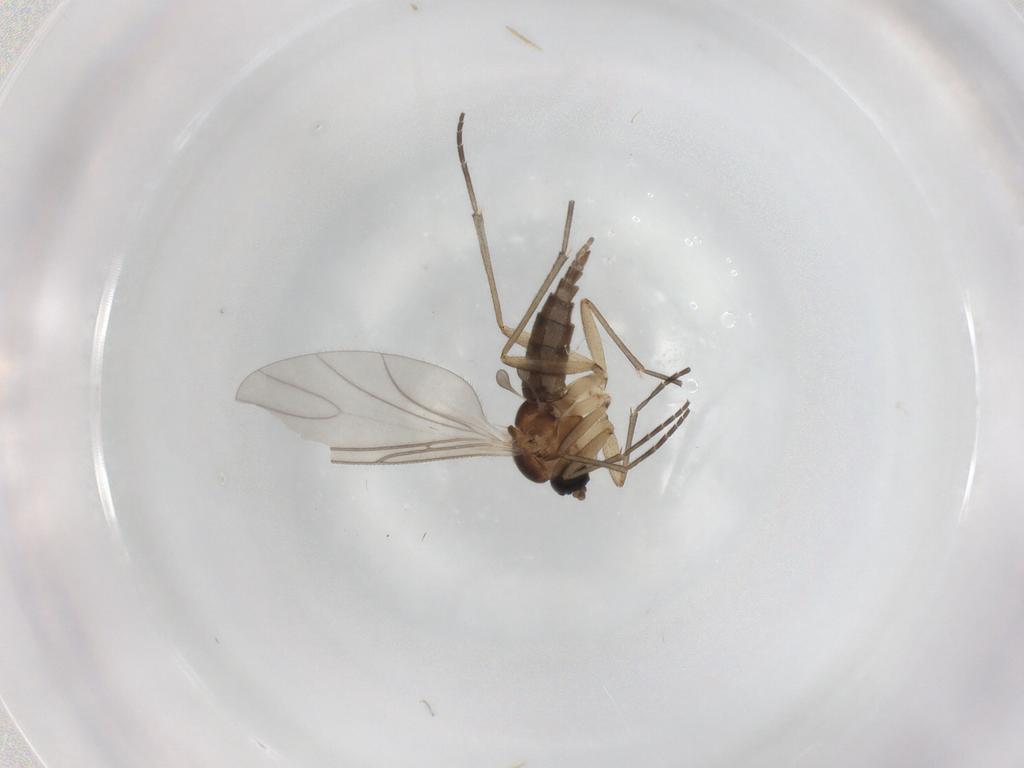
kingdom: Animalia
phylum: Arthropoda
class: Insecta
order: Diptera
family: Sciaridae
